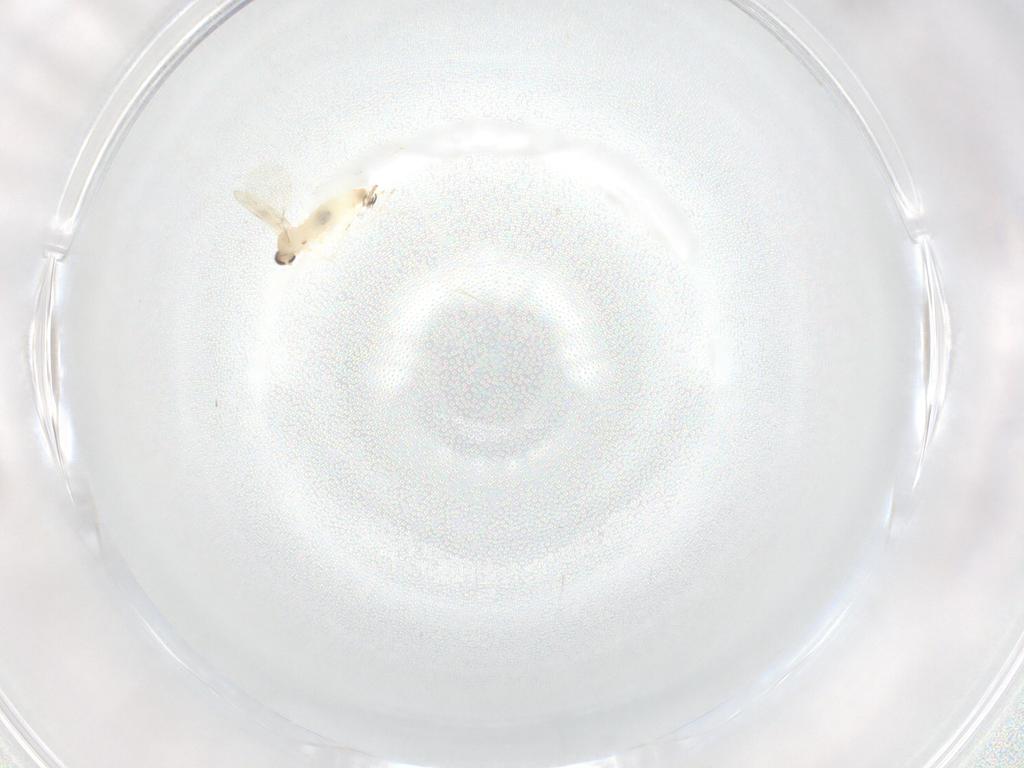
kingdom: Animalia
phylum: Arthropoda
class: Insecta
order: Diptera
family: Cecidomyiidae
